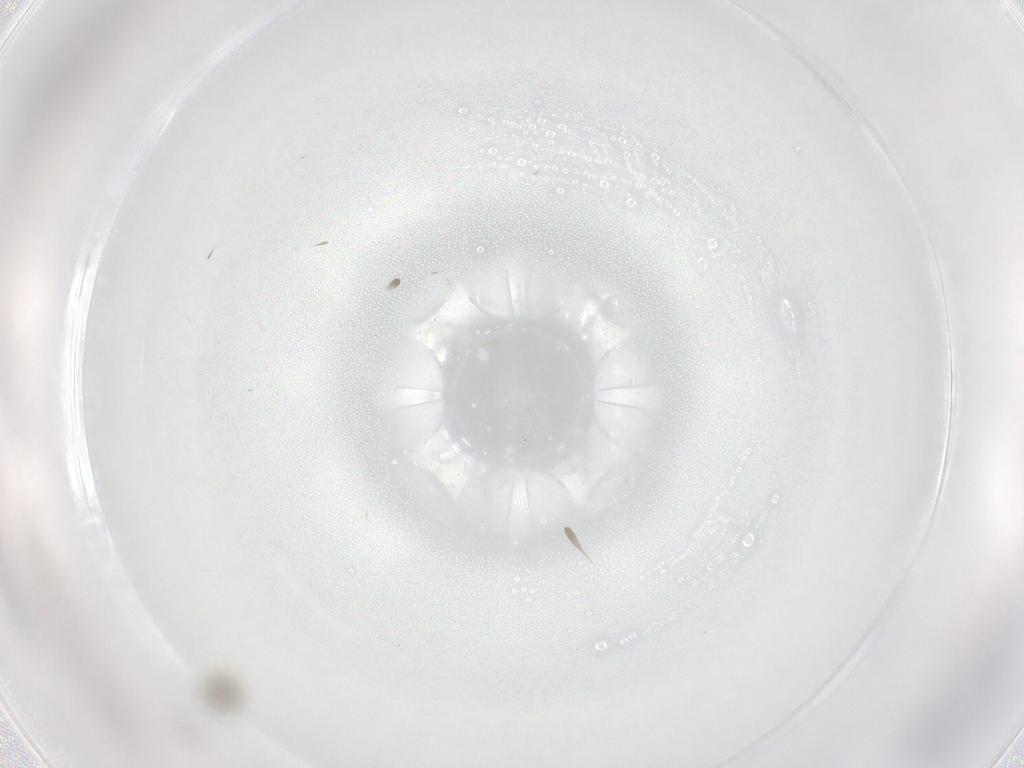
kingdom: Animalia
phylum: Arthropoda
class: Insecta
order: Diptera
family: Cecidomyiidae
